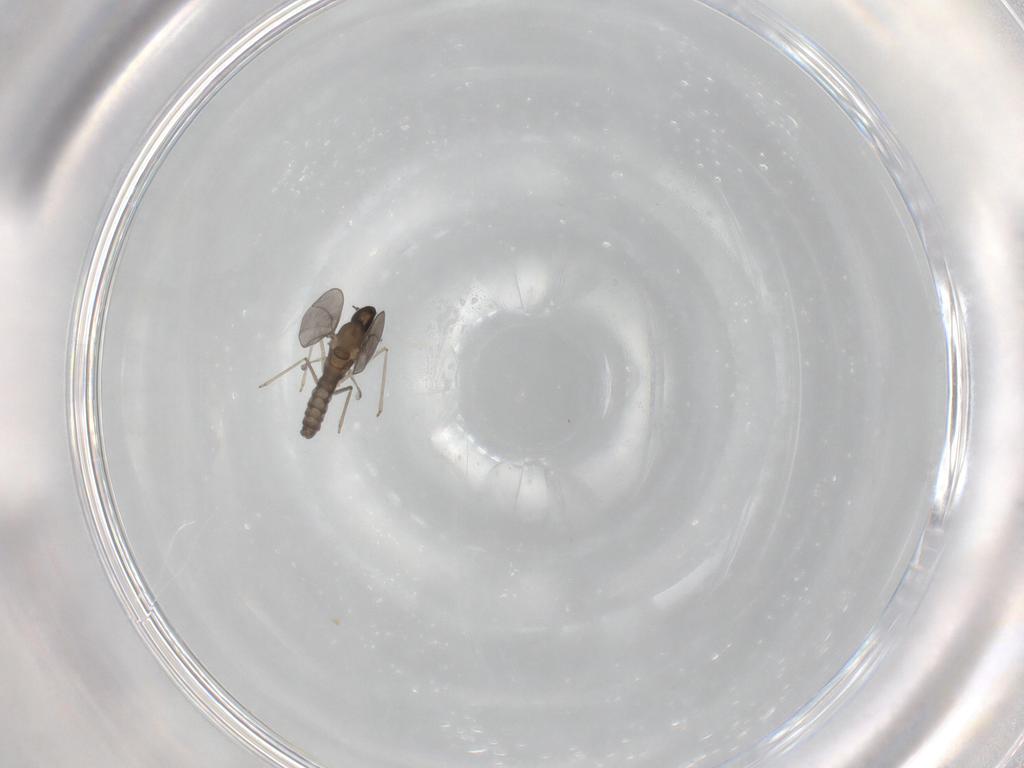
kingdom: Animalia
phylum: Arthropoda
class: Insecta
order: Diptera
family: Cecidomyiidae
